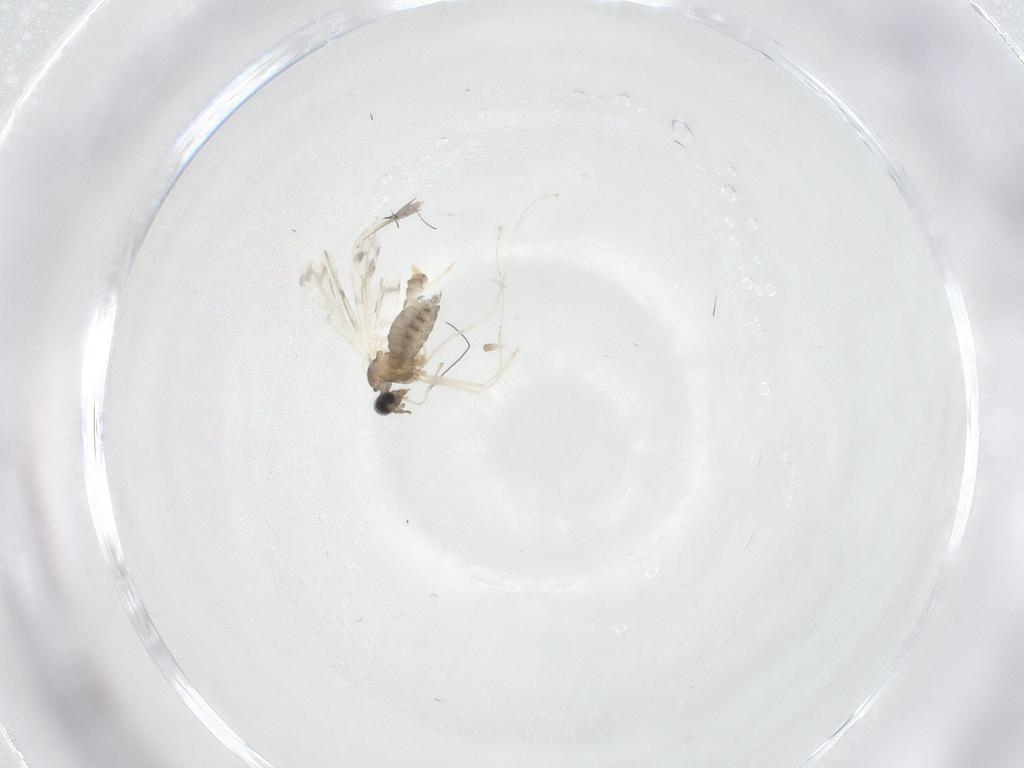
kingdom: Animalia
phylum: Arthropoda
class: Insecta
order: Diptera
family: Cecidomyiidae
